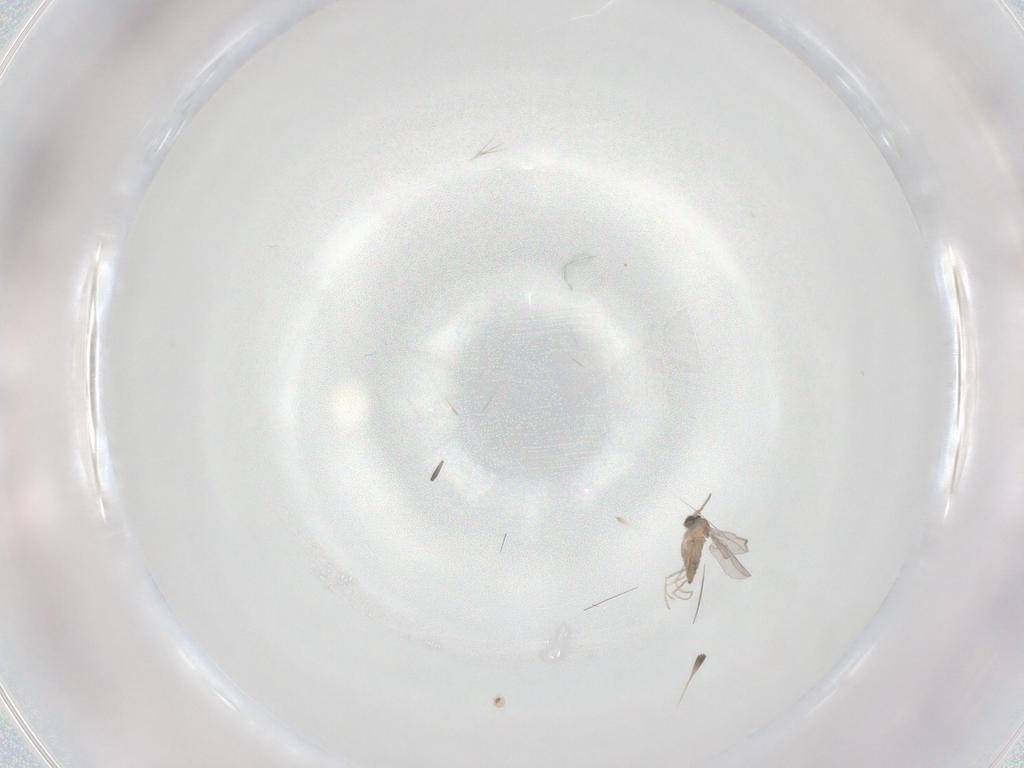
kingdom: Animalia
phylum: Arthropoda
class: Insecta
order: Diptera
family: Cecidomyiidae
